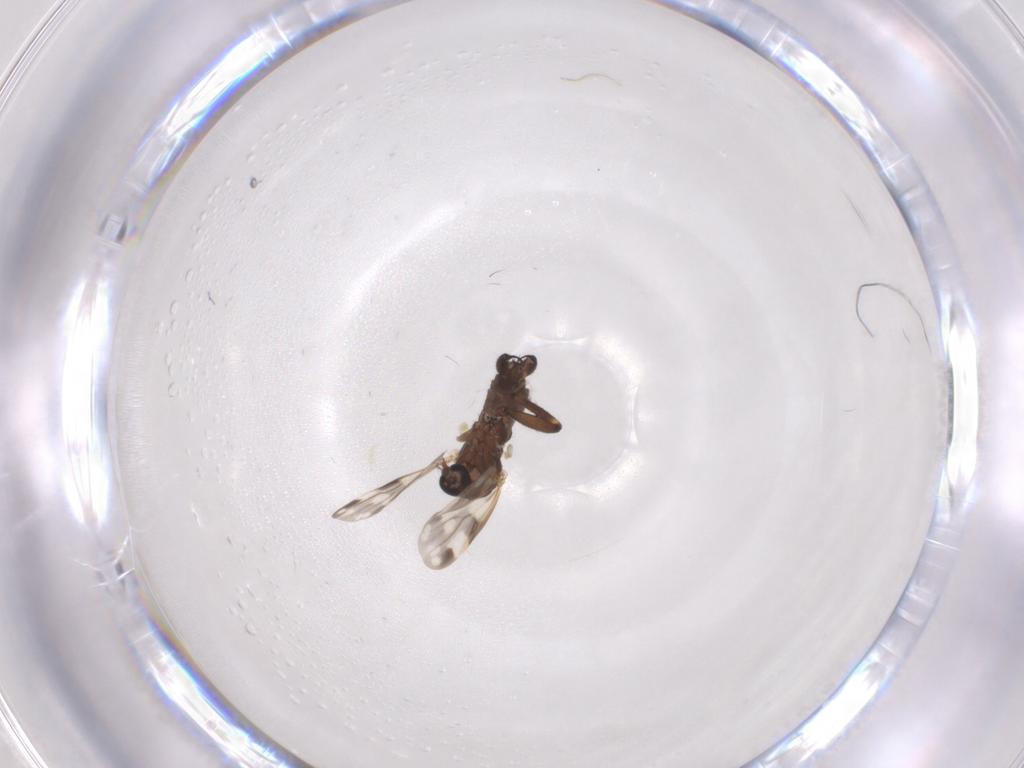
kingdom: Animalia
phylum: Arthropoda
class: Insecta
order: Diptera
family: Ceratopogonidae
